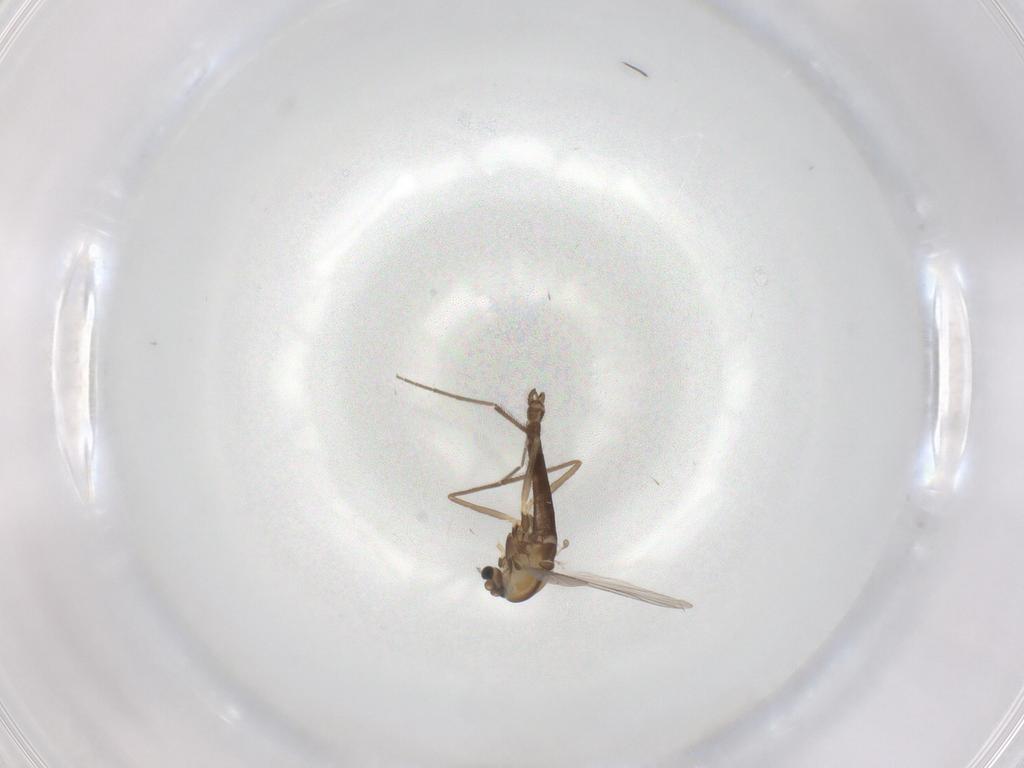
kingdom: Animalia
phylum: Arthropoda
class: Insecta
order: Diptera
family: Chironomidae
